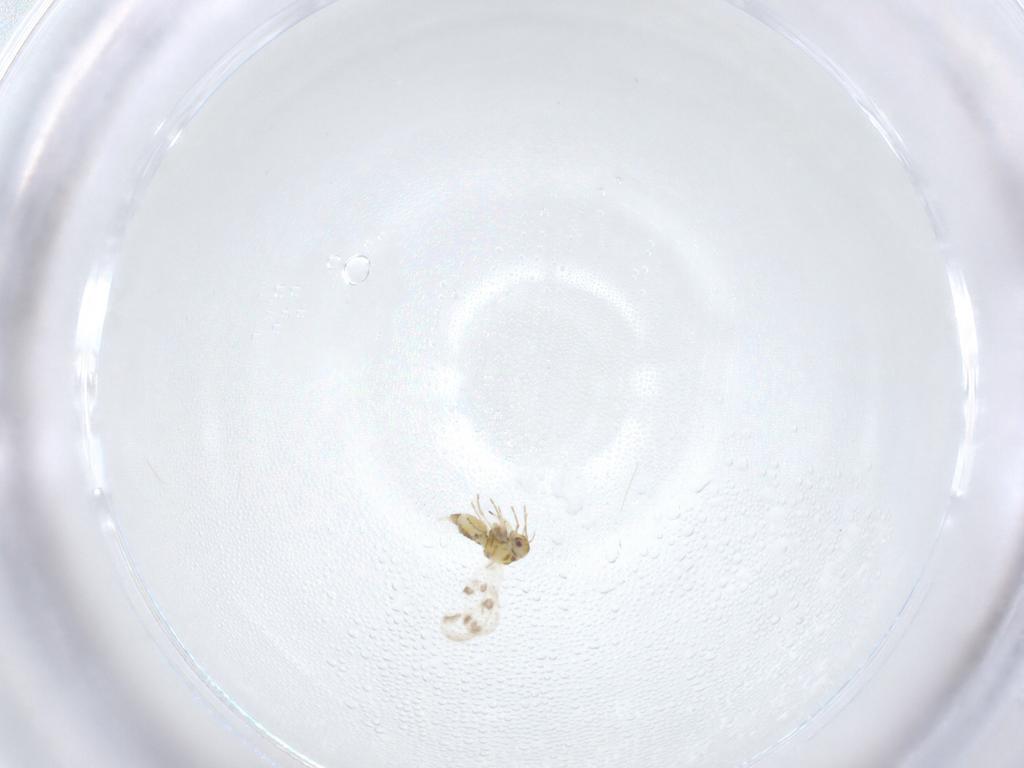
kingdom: Animalia
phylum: Arthropoda
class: Insecta
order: Hemiptera
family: Aleyrodidae
